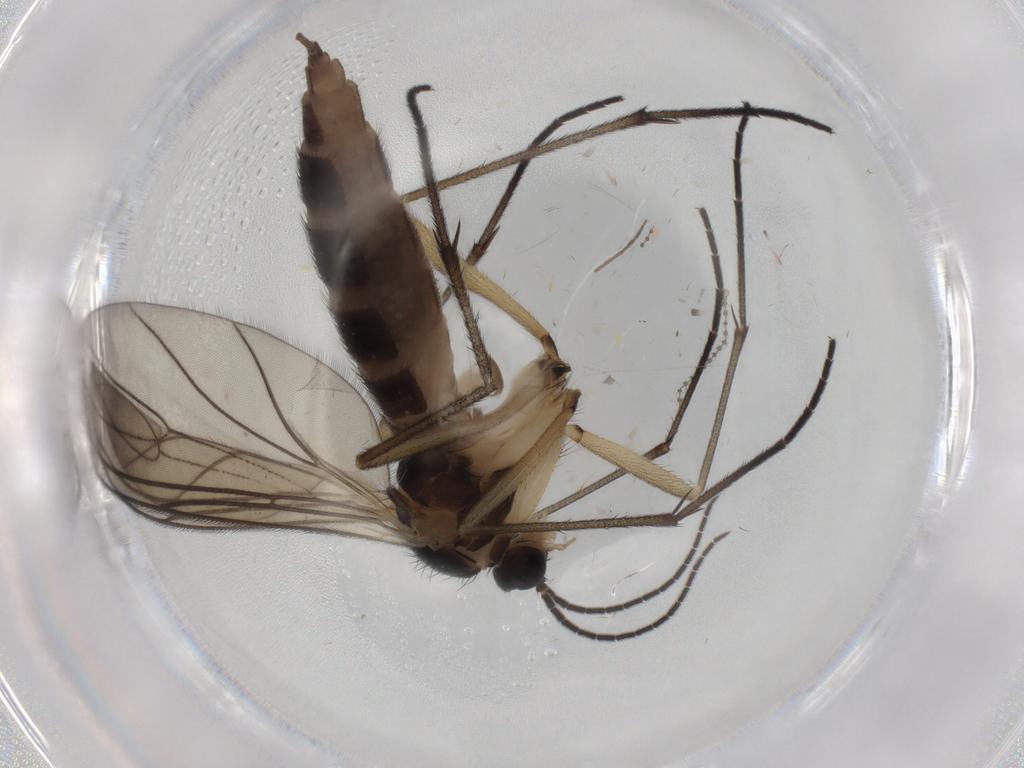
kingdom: Animalia
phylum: Arthropoda
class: Insecta
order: Diptera
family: Sciaridae
